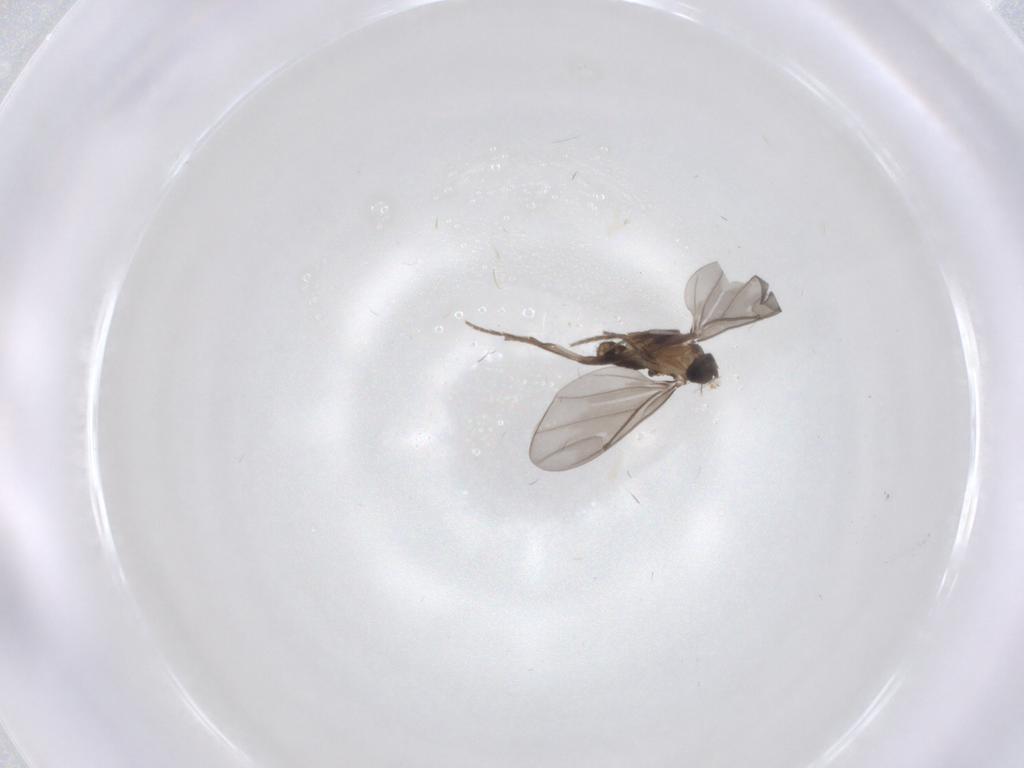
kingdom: Animalia
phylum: Arthropoda
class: Insecta
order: Diptera
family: Phoridae
